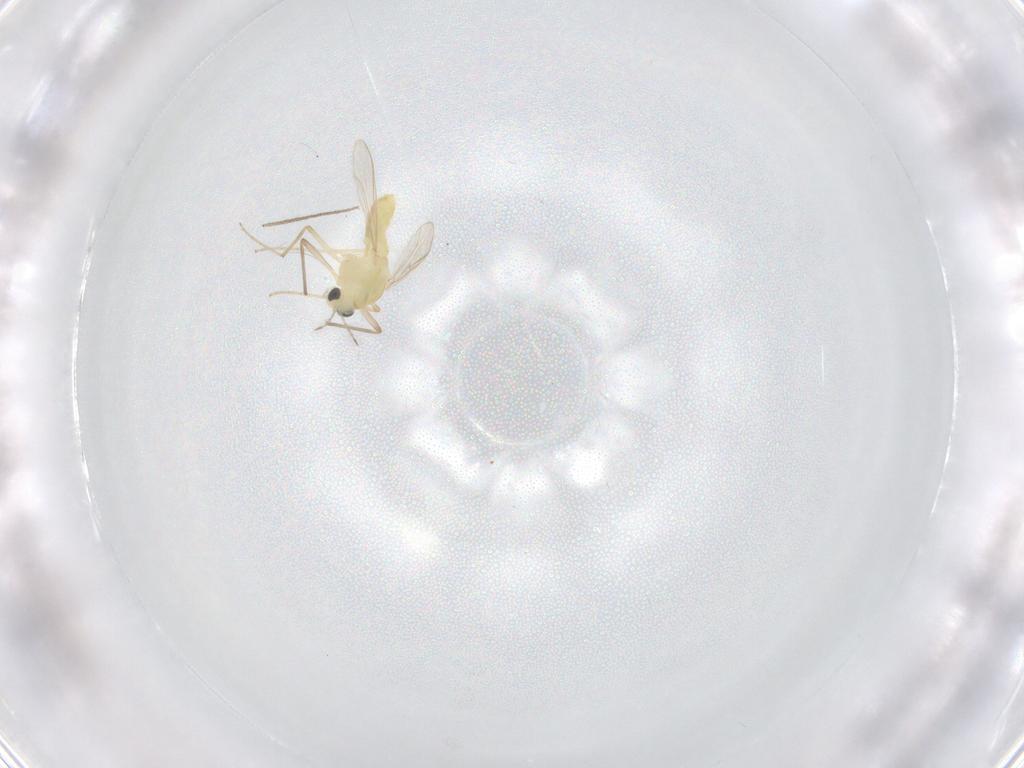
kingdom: Animalia
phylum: Arthropoda
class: Insecta
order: Diptera
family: Chironomidae
